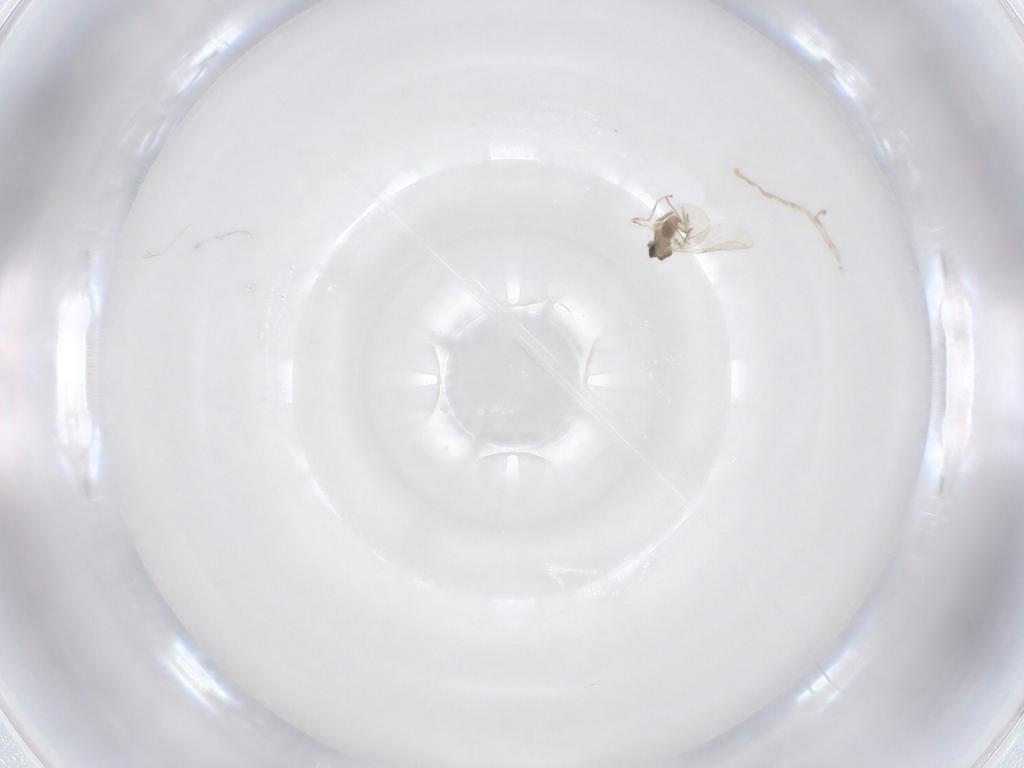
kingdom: Animalia
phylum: Arthropoda
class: Insecta
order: Diptera
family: Cecidomyiidae
